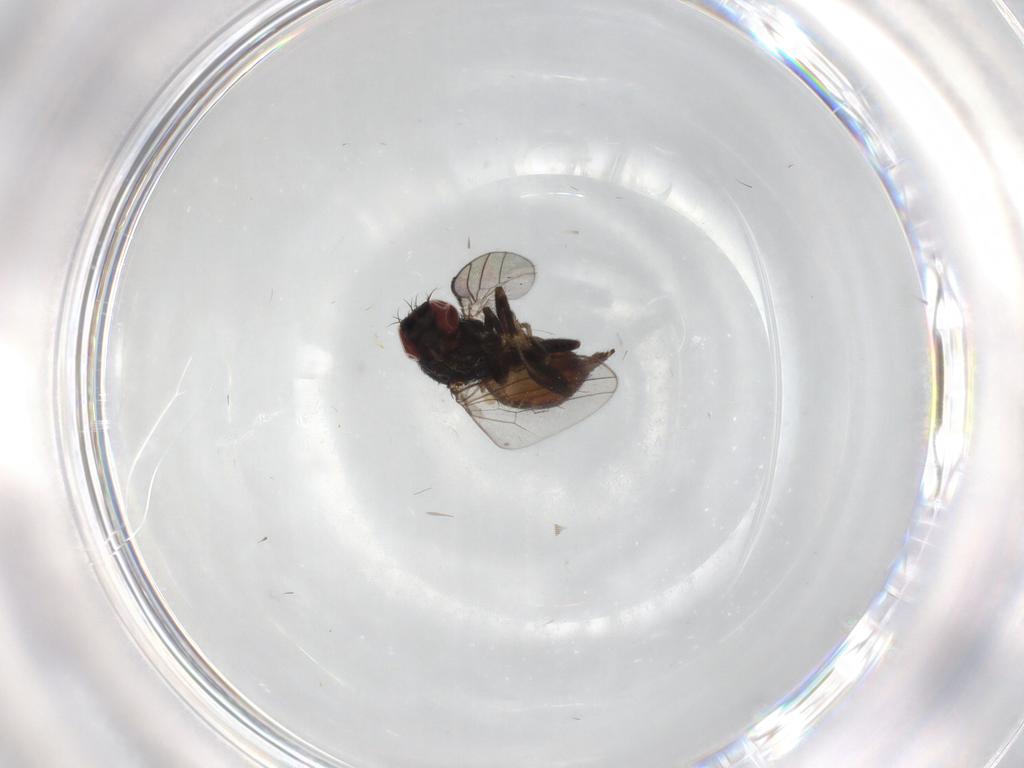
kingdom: Animalia
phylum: Arthropoda
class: Insecta
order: Diptera
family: Milichiidae
